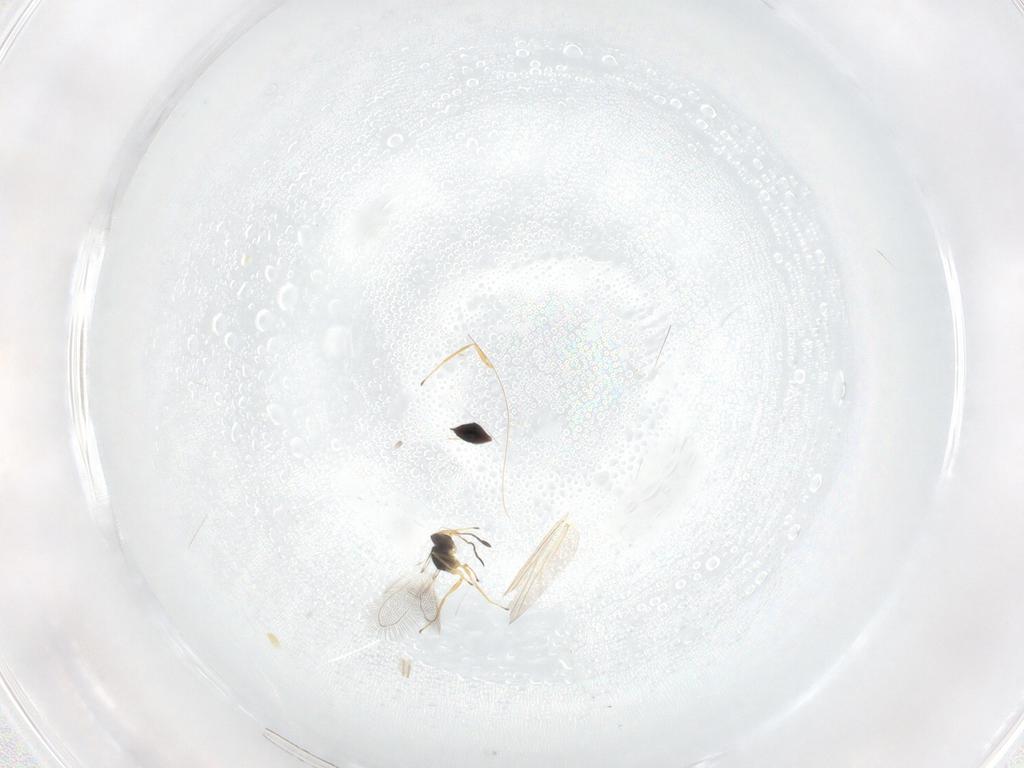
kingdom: Animalia
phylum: Arthropoda
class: Insecta
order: Hymenoptera
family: Mymaridae
